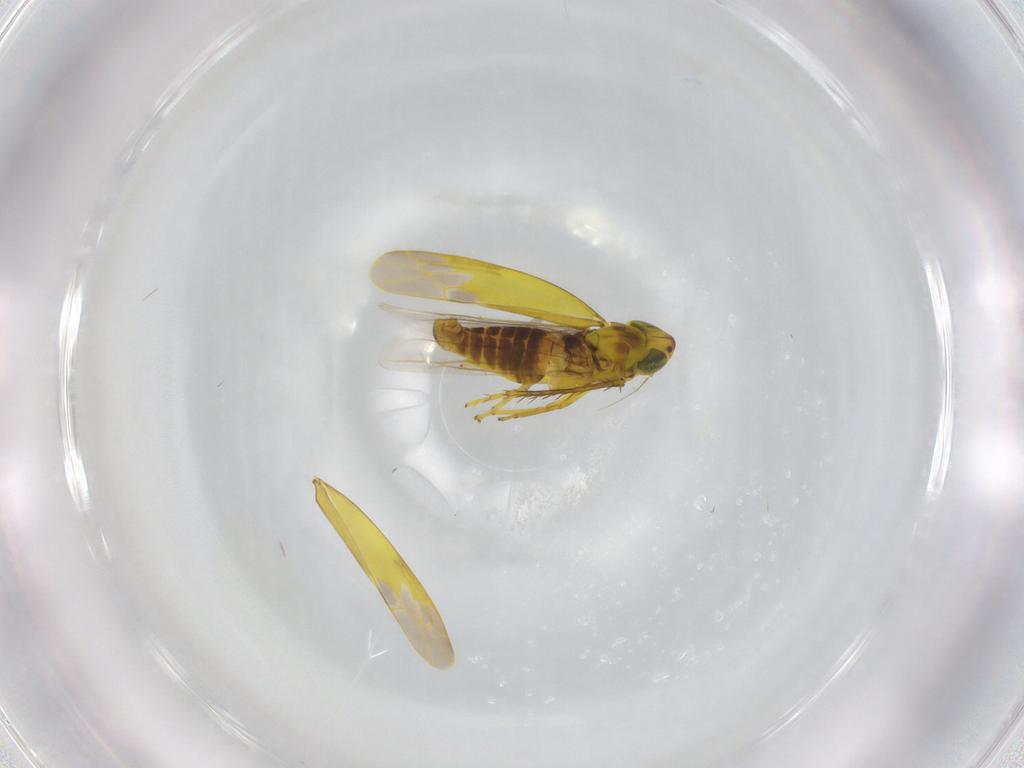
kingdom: Animalia
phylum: Arthropoda
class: Insecta
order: Hemiptera
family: Cicadellidae
